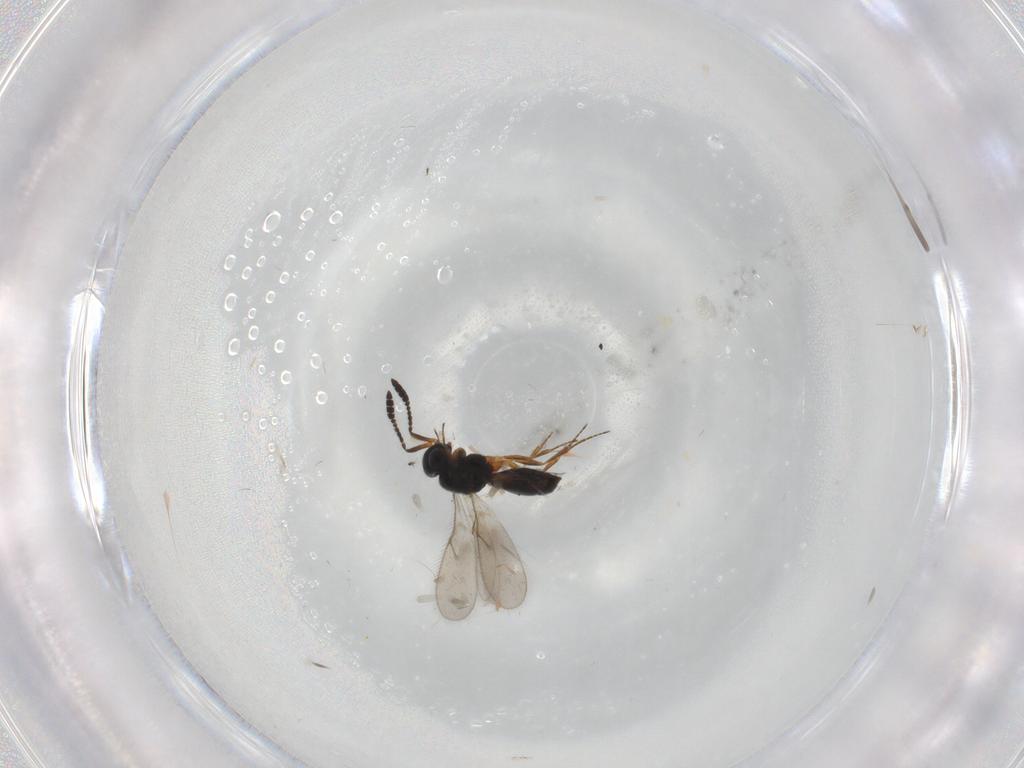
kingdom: Animalia
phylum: Arthropoda
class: Insecta
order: Hymenoptera
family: Scelionidae
